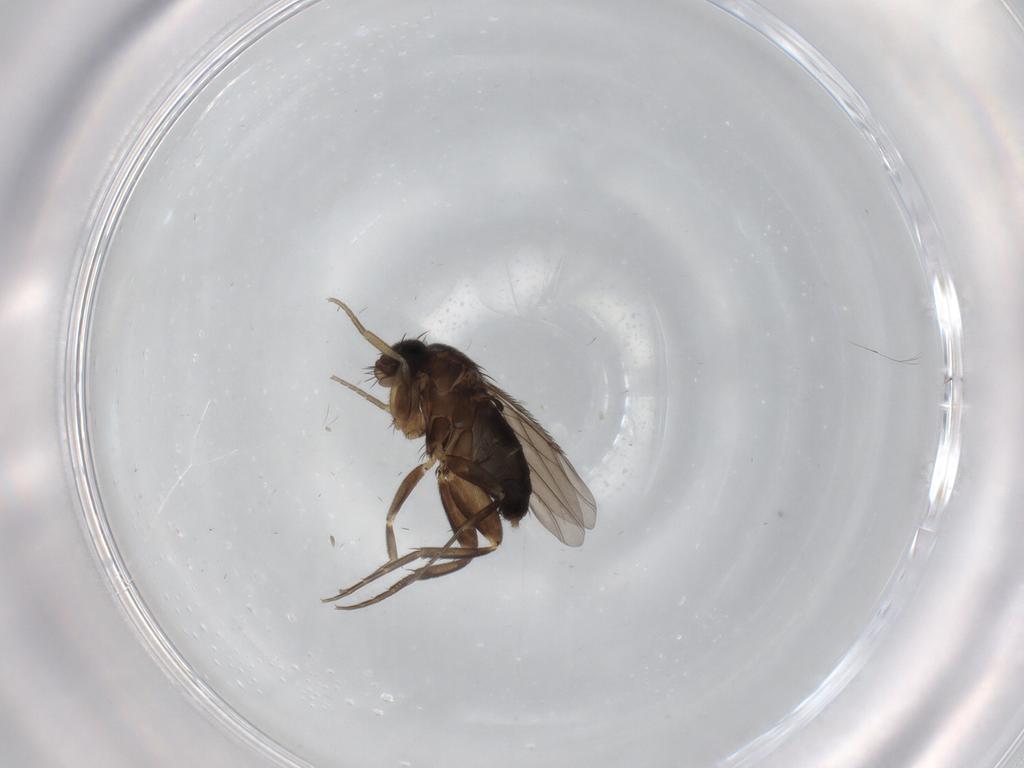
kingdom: Animalia
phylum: Arthropoda
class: Insecta
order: Diptera
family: Phoridae
